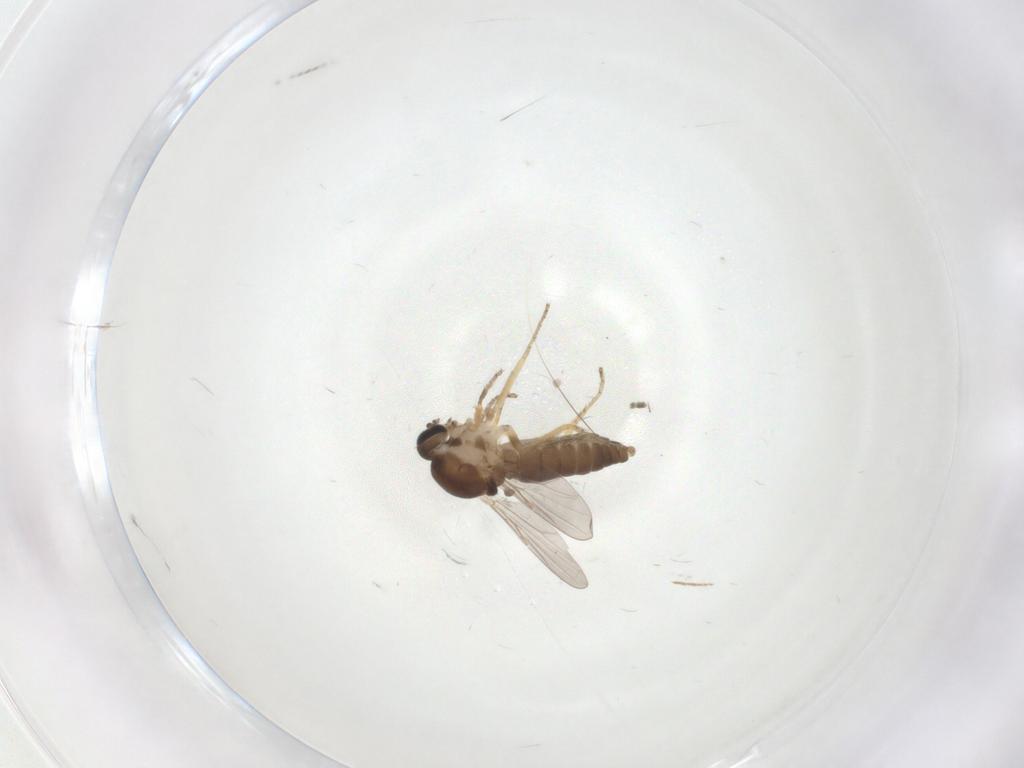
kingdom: Animalia
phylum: Arthropoda
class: Insecta
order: Diptera
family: Ceratopogonidae
